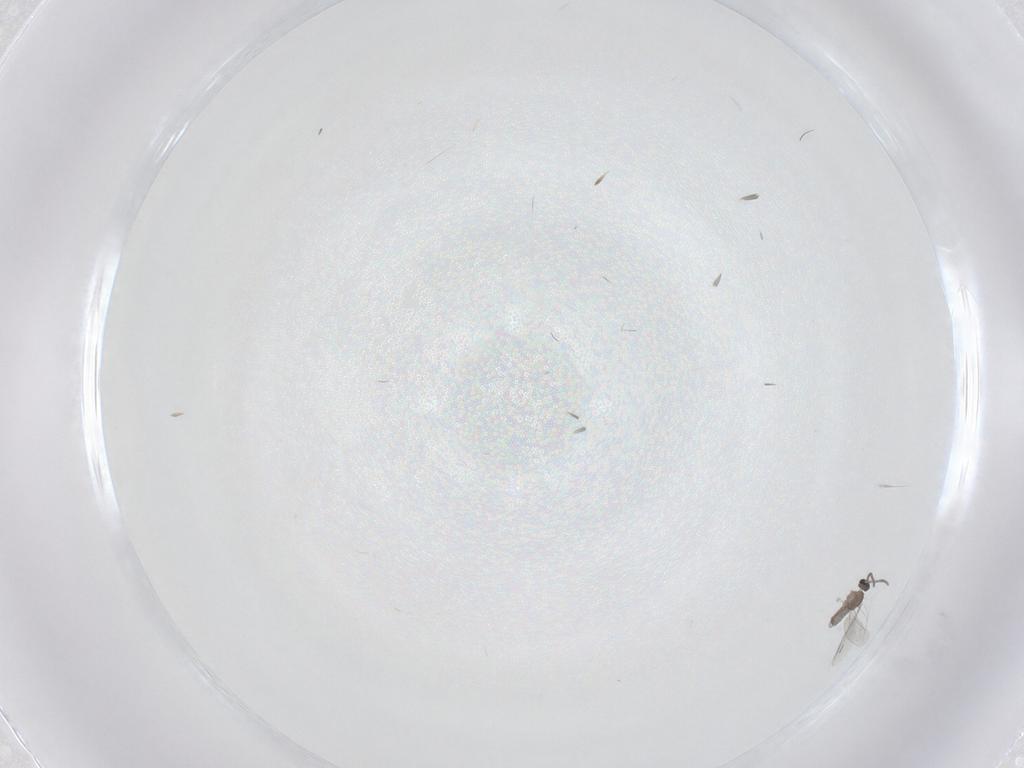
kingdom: Animalia
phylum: Arthropoda
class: Insecta
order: Diptera
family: Cecidomyiidae
